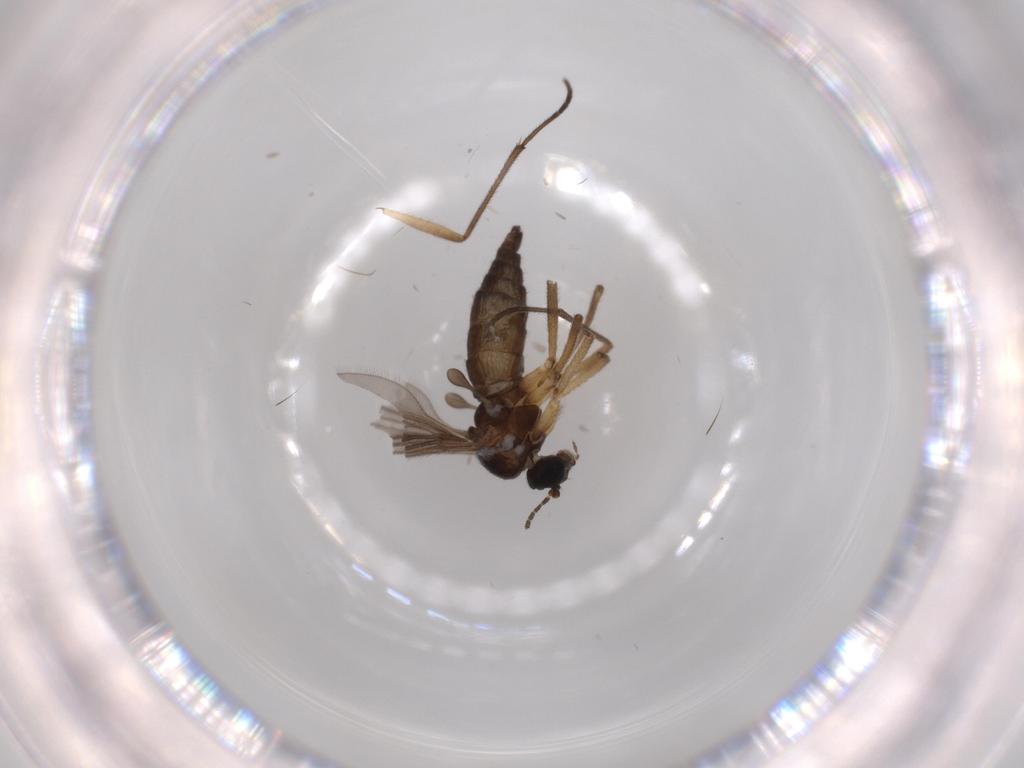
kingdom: Animalia
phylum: Arthropoda
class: Insecta
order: Diptera
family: Sciaridae
